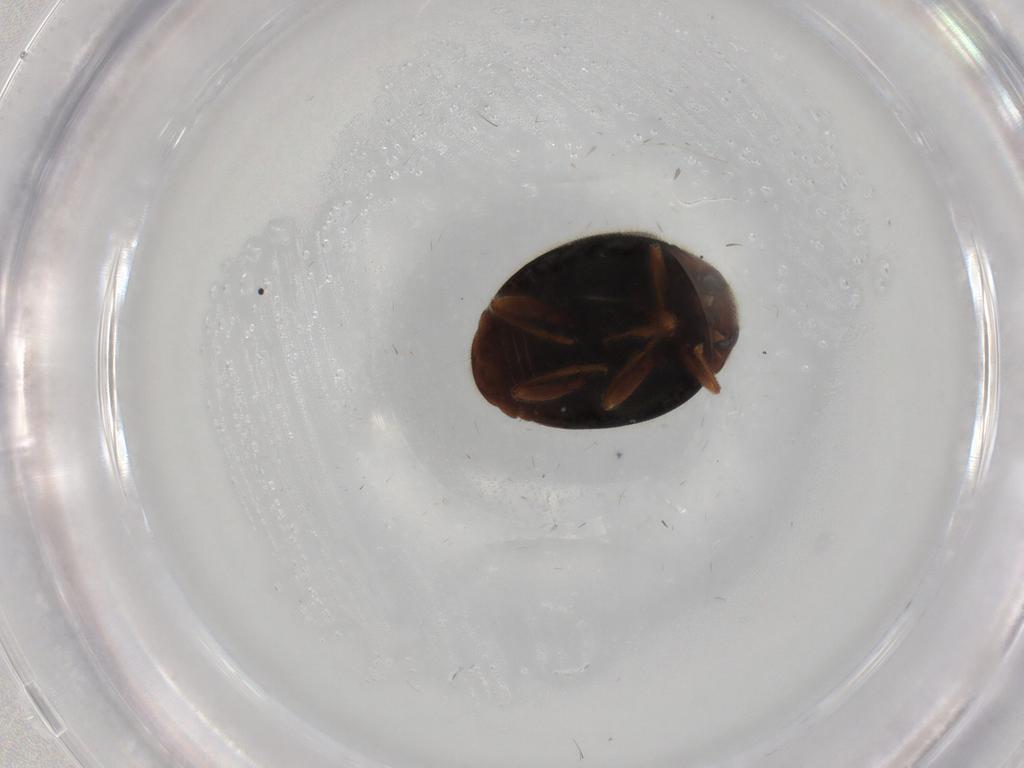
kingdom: Animalia
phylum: Arthropoda
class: Insecta
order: Coleoptera
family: Coccinellidae
